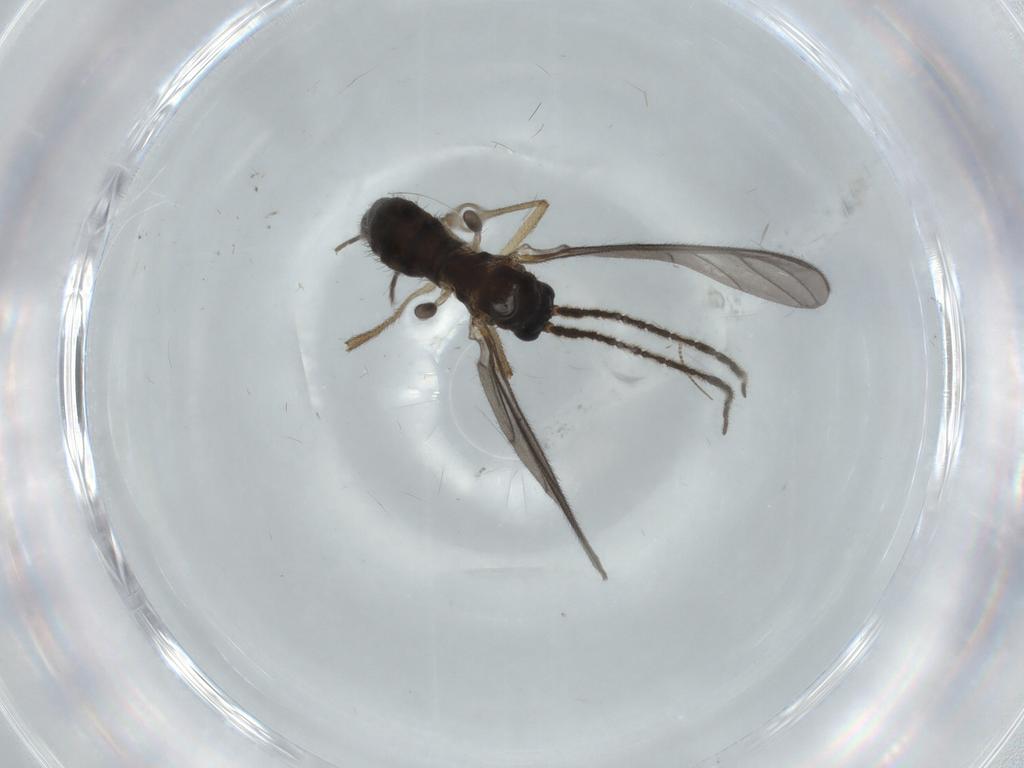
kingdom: Animalia
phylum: Arthropoda
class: Insecta
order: Diptera
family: Sciaridae
